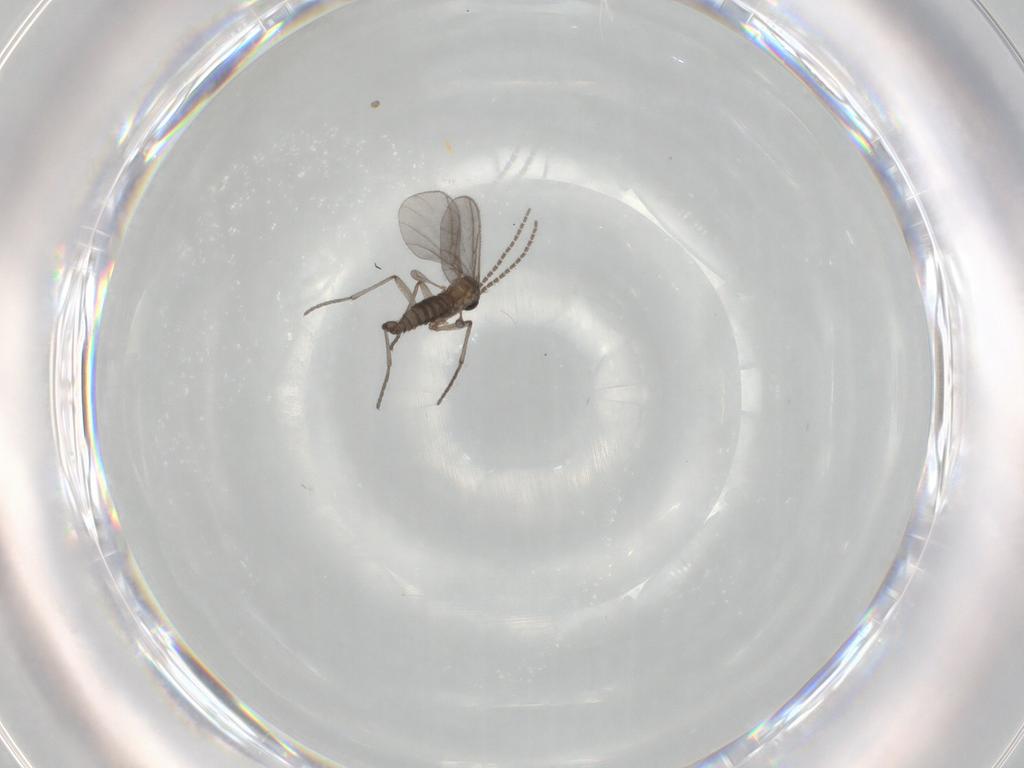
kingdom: Animalia
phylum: Arthropoda
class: Insecta
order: Diptera
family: Sciaridae
